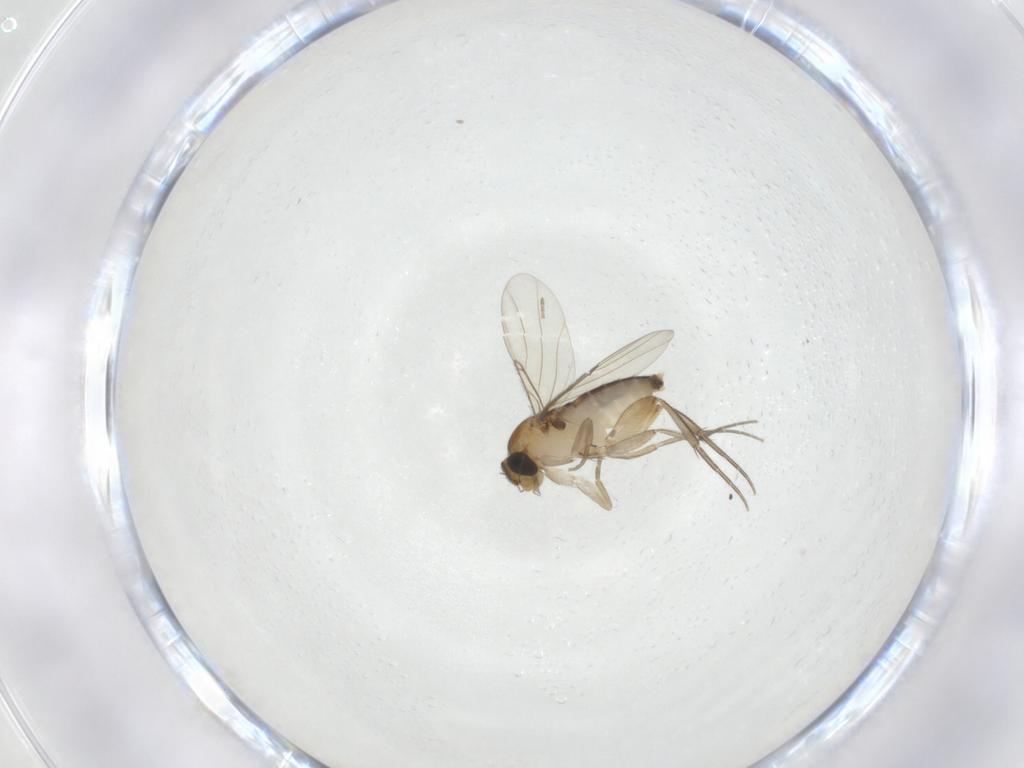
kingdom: Animalia
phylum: Arthropoda
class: Insecta
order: Diptera
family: Phoridae
